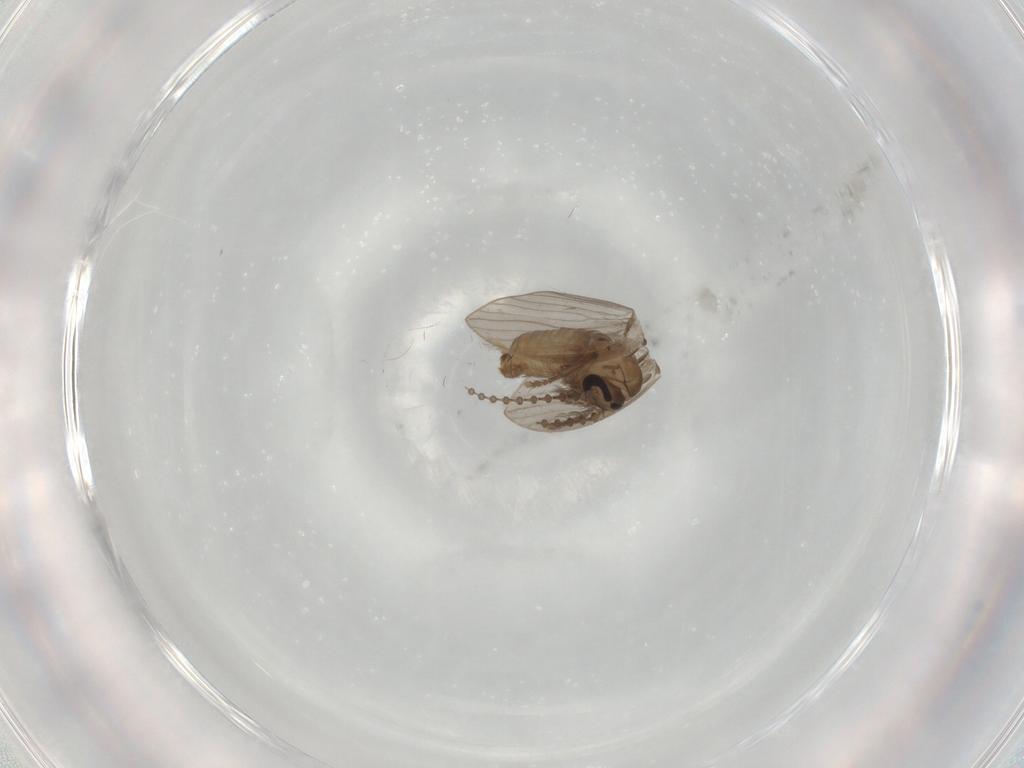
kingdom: Animalia
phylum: Arthropoda
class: Insecta
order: Diptera
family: Psychodidae
